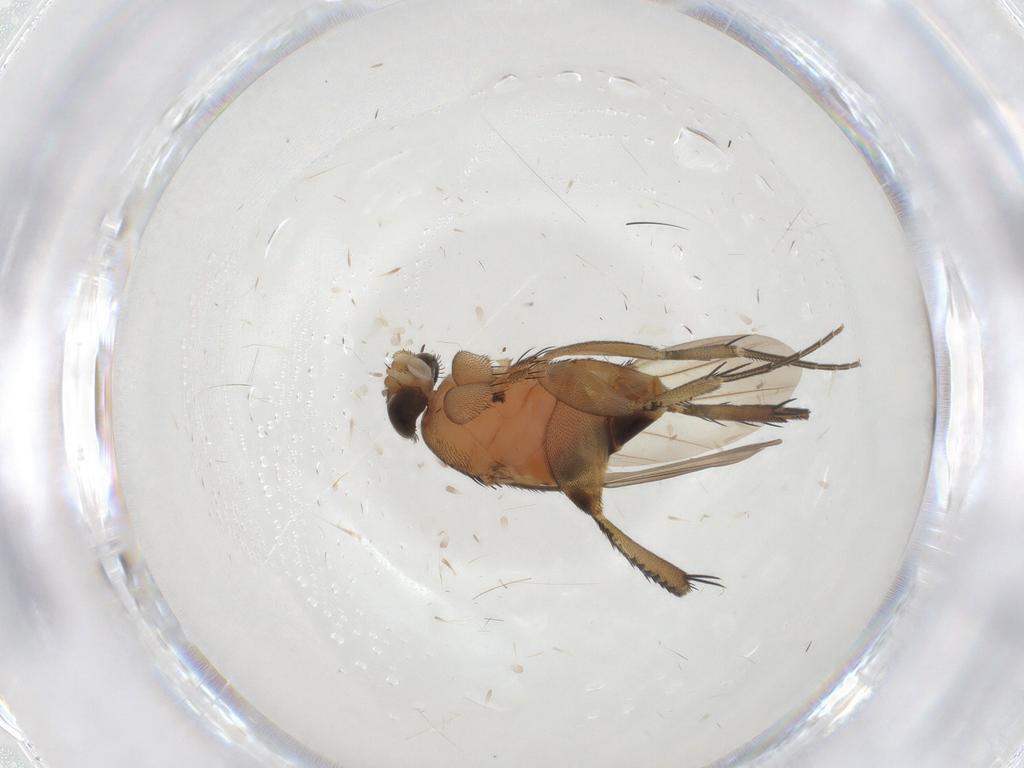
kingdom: Animalia
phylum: Arthropoda
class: Insecta
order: Diptera
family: Phoridae
